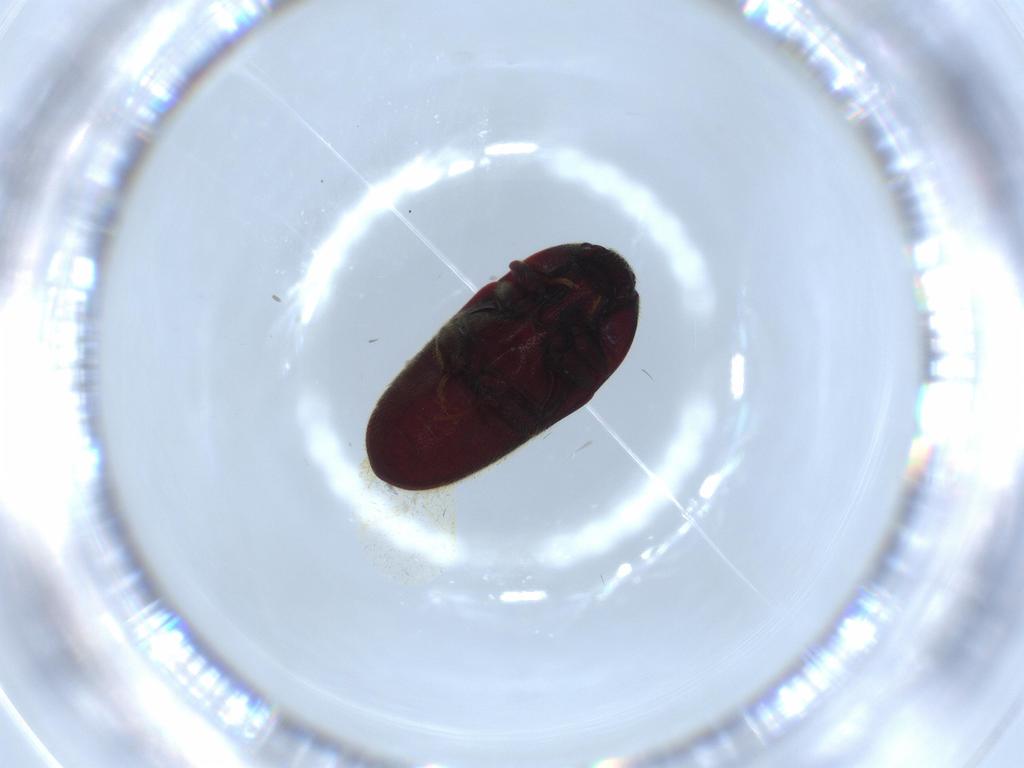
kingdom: Animalia
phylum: Arthropoda
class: Insecta
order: Coleoptera
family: Throscidae
